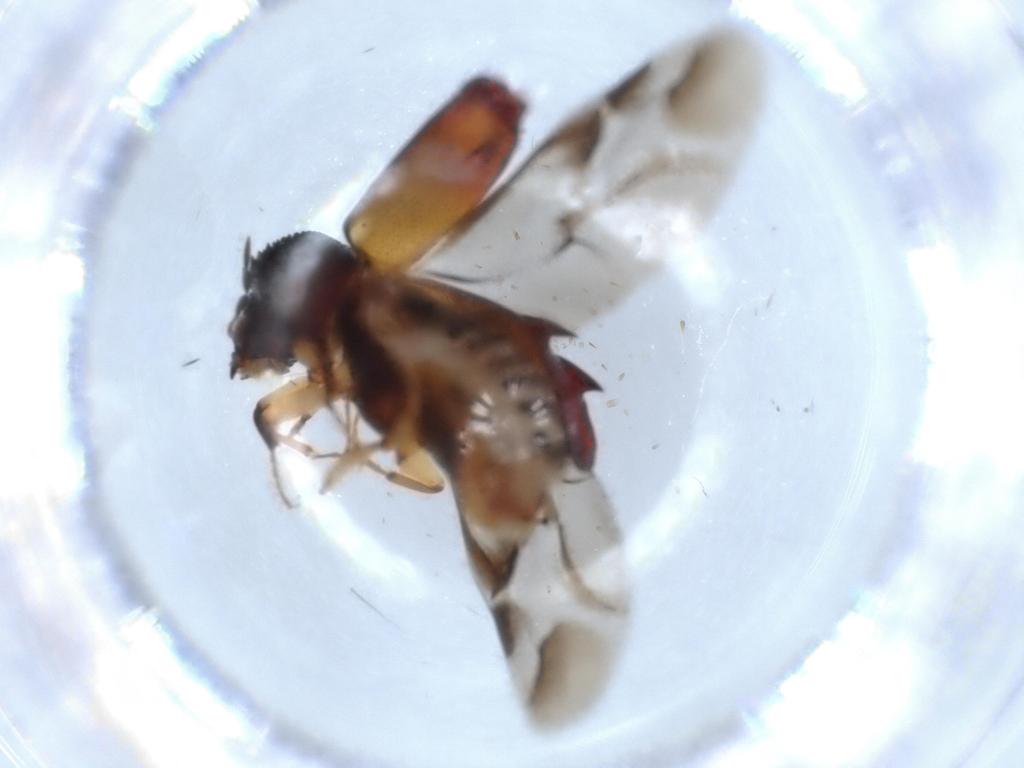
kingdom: Animalia
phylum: Arthropoda
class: Insecta
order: Coleoptera
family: Bostrichidae
